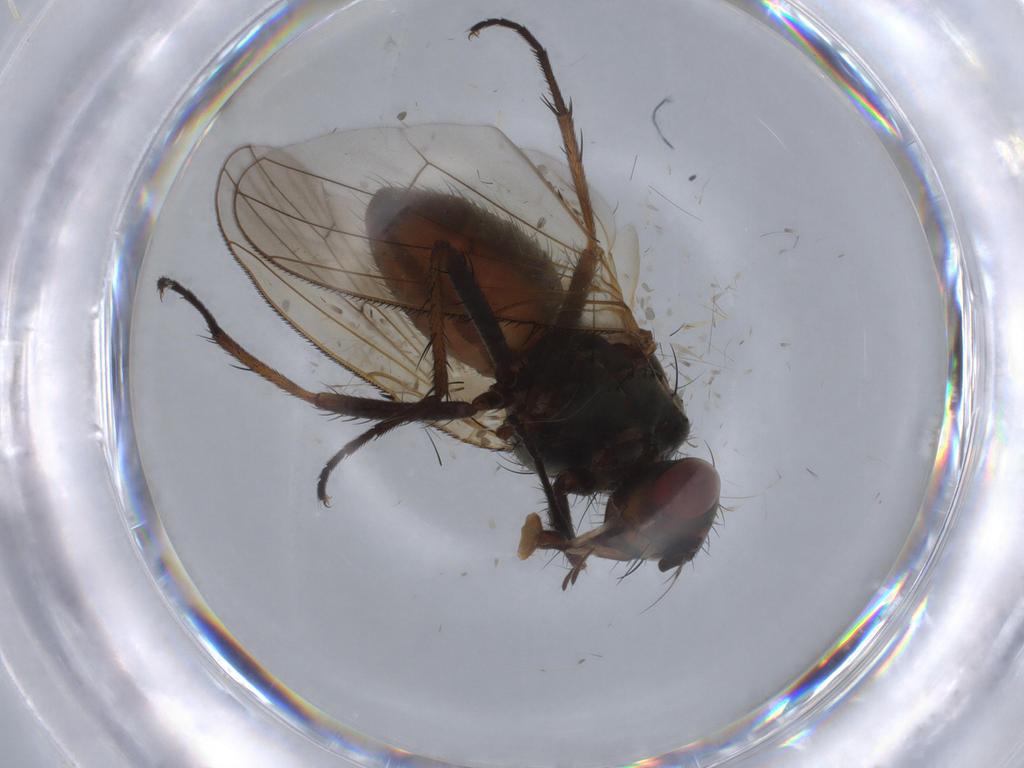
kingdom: Animalia
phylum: Arthropoda
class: Insecta
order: Diptera
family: Anthomyiidae
